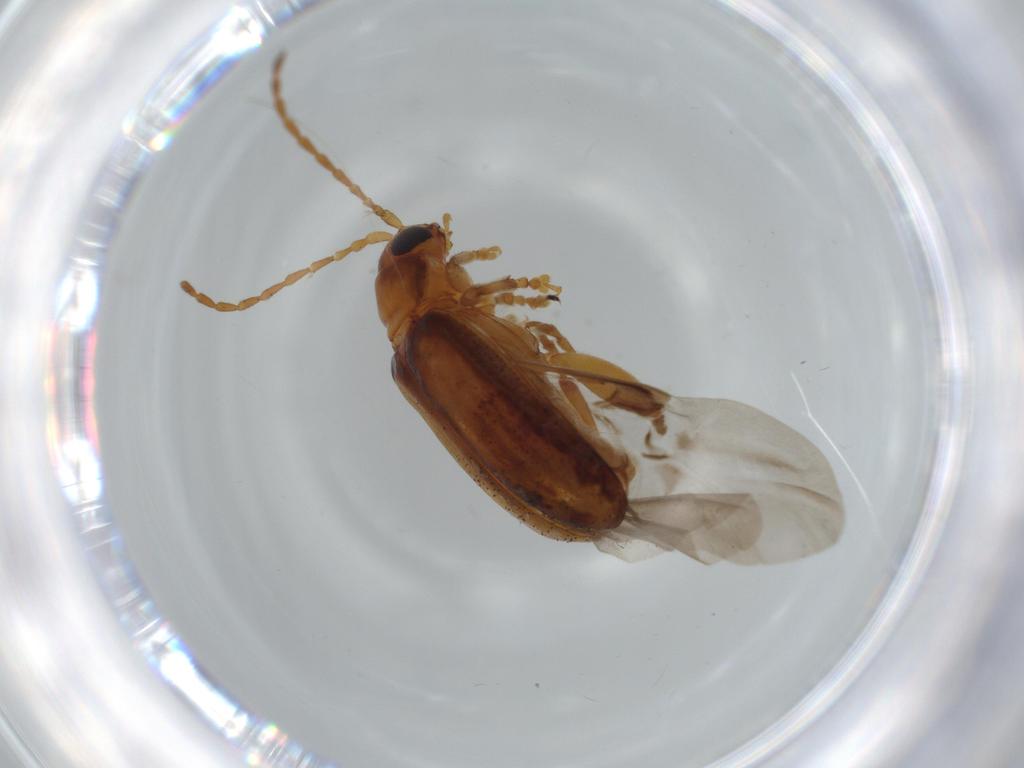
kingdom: Animalia
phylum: Arthropoda
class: Insecta
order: Coleoptera
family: Chrysomelidae
